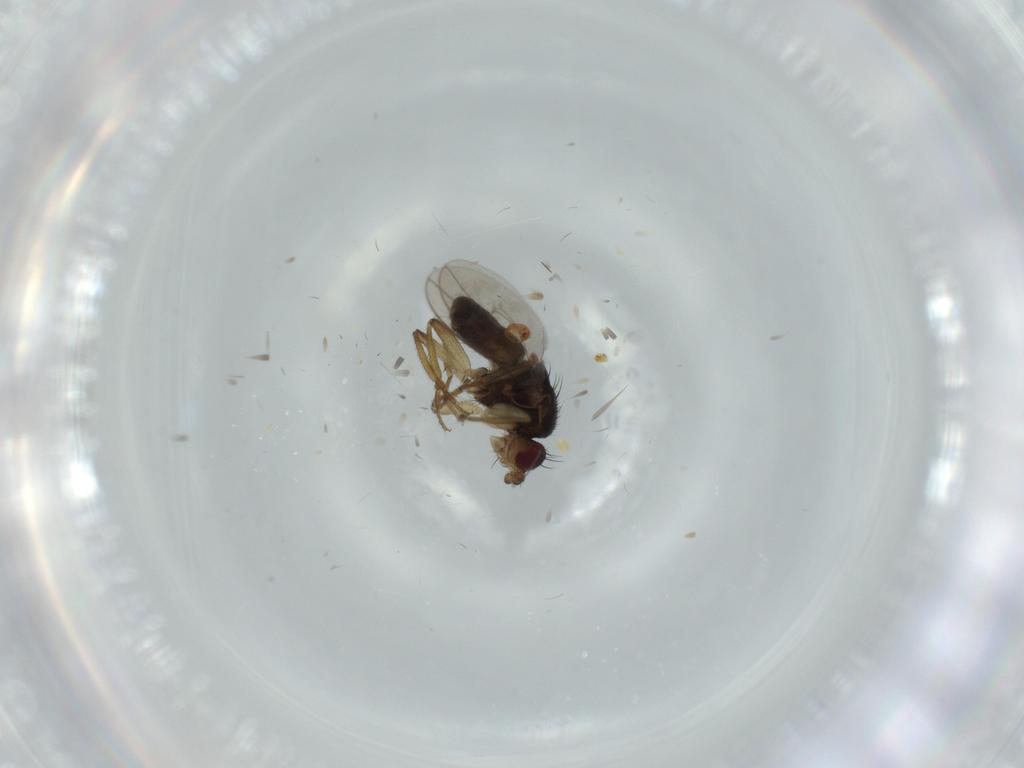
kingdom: Animalia
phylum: Arthropoda
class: Insecta
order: Diptera
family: Sphaeroceridae
